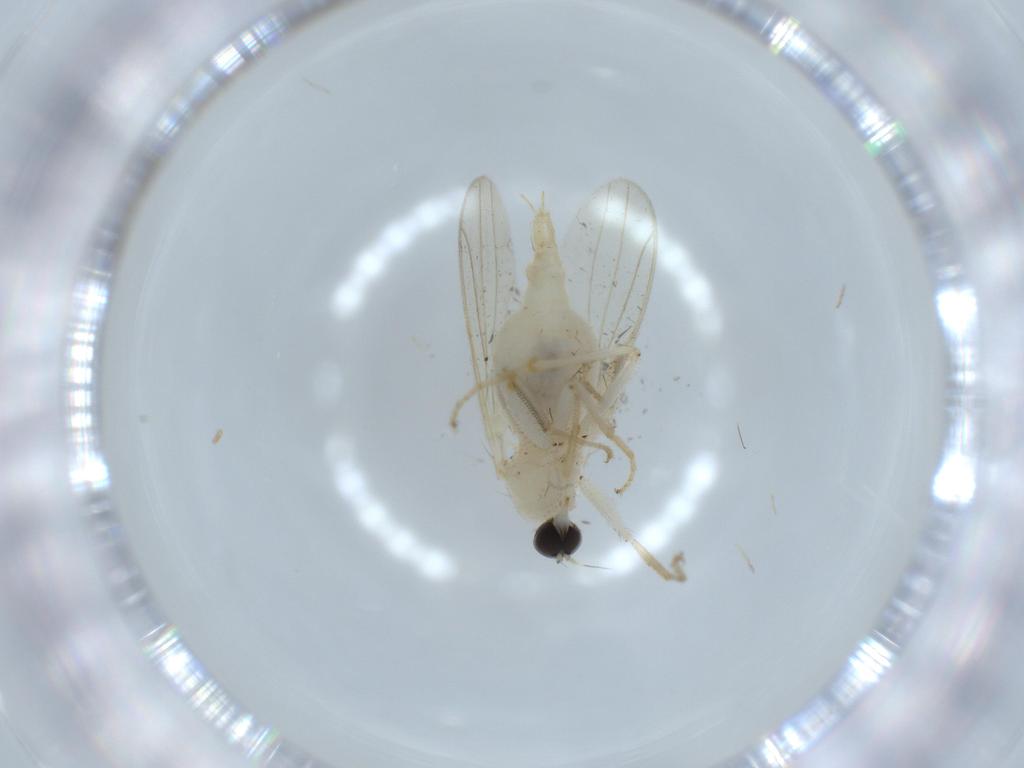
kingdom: Animalia
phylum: Arthropoda
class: Insecta
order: Diptera
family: Hybotidae
